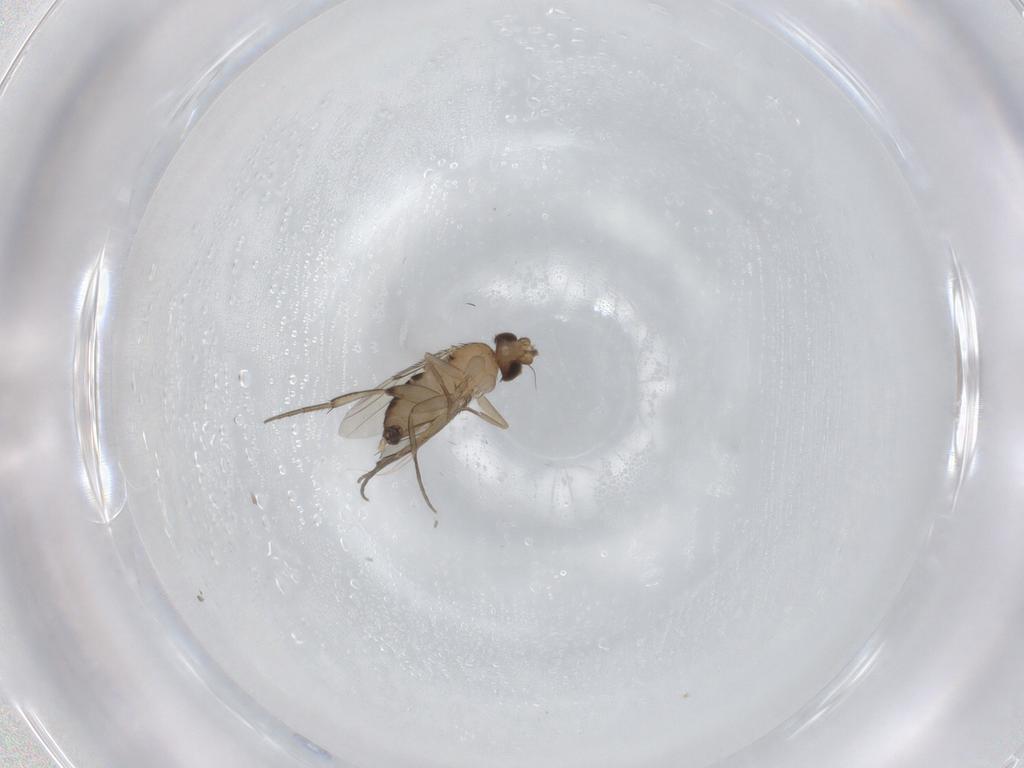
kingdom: Animalia
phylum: Arthropoda
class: Insecta
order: Diptera
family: Phoridae
